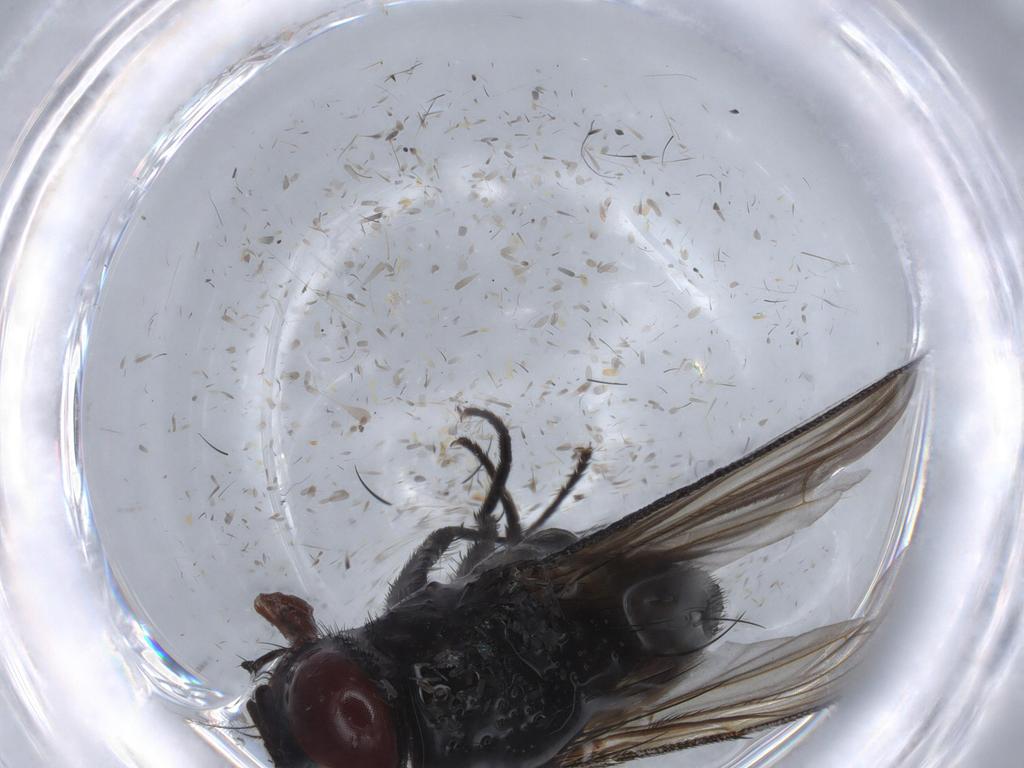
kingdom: Animalia
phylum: Arthropoda
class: Insecta
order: Diptera
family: Tachinidae
